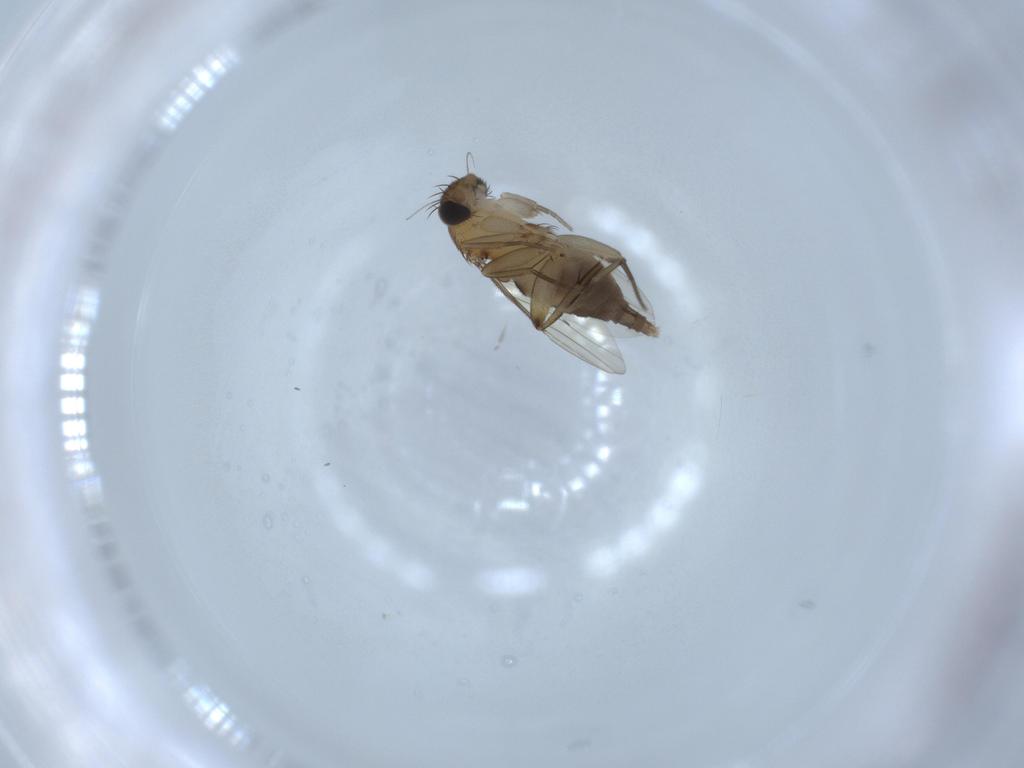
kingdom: Animalia
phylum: Arthropoda
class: Insecta
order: Diptera
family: Phoridae
